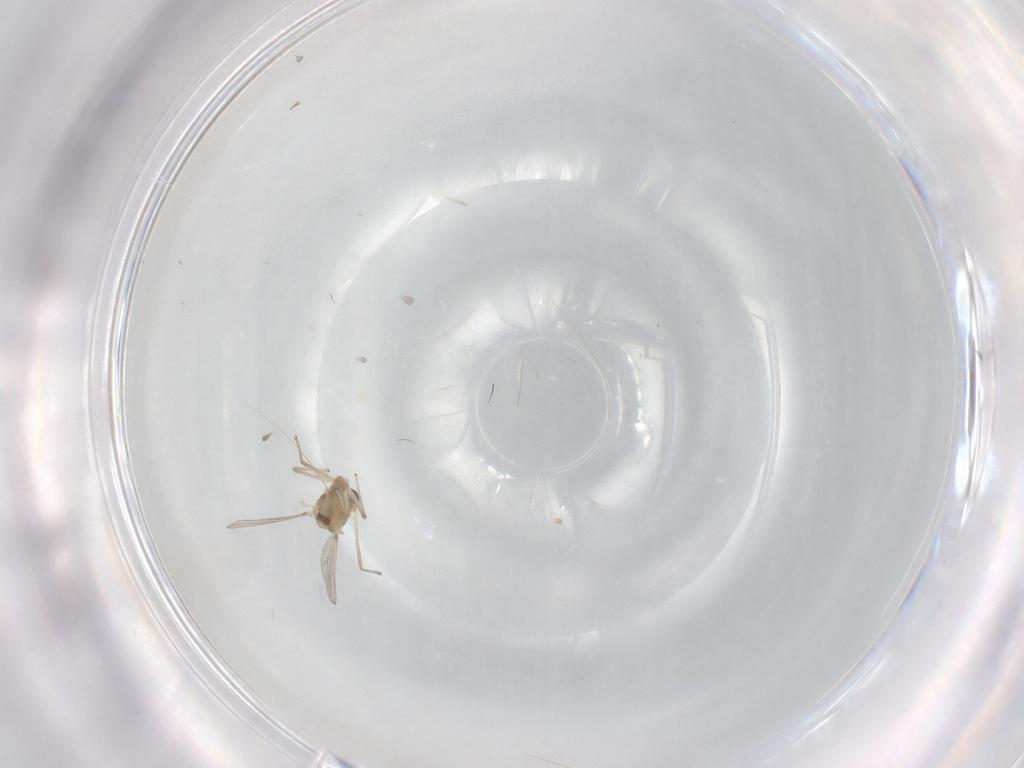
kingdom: Animalia
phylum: Arthropoda
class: Insecta
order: Diptera
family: Chironomidae
